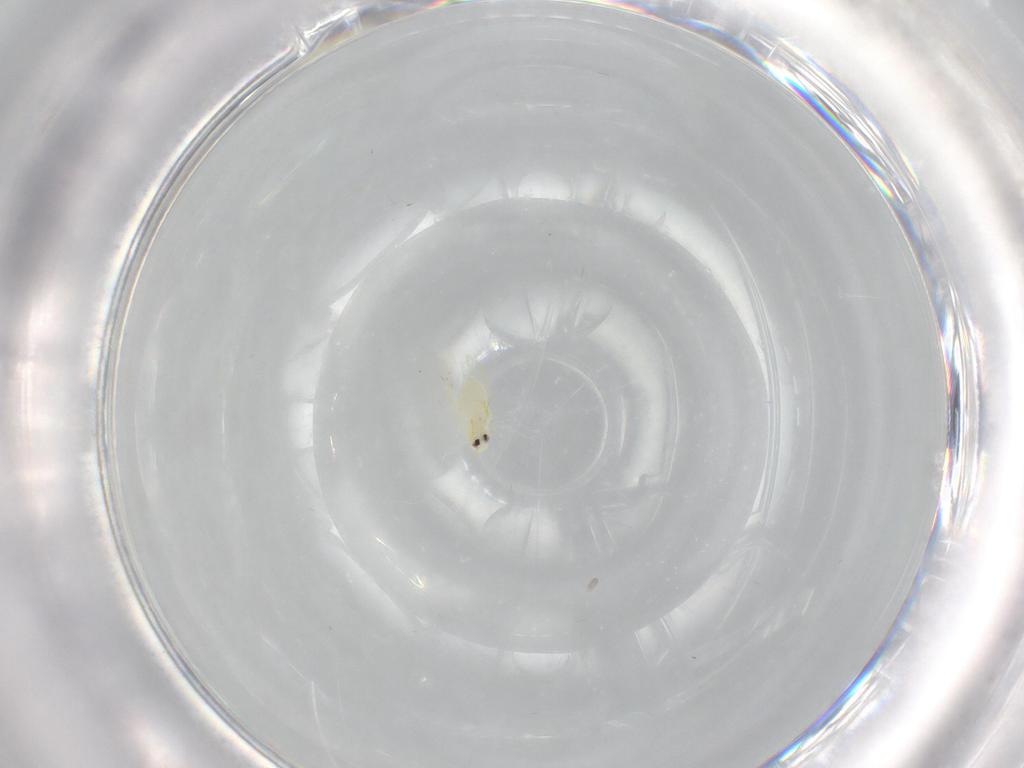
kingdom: Animalia
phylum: Arthropoda
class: Insecta
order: Hemiptera
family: Aleyrodidae
